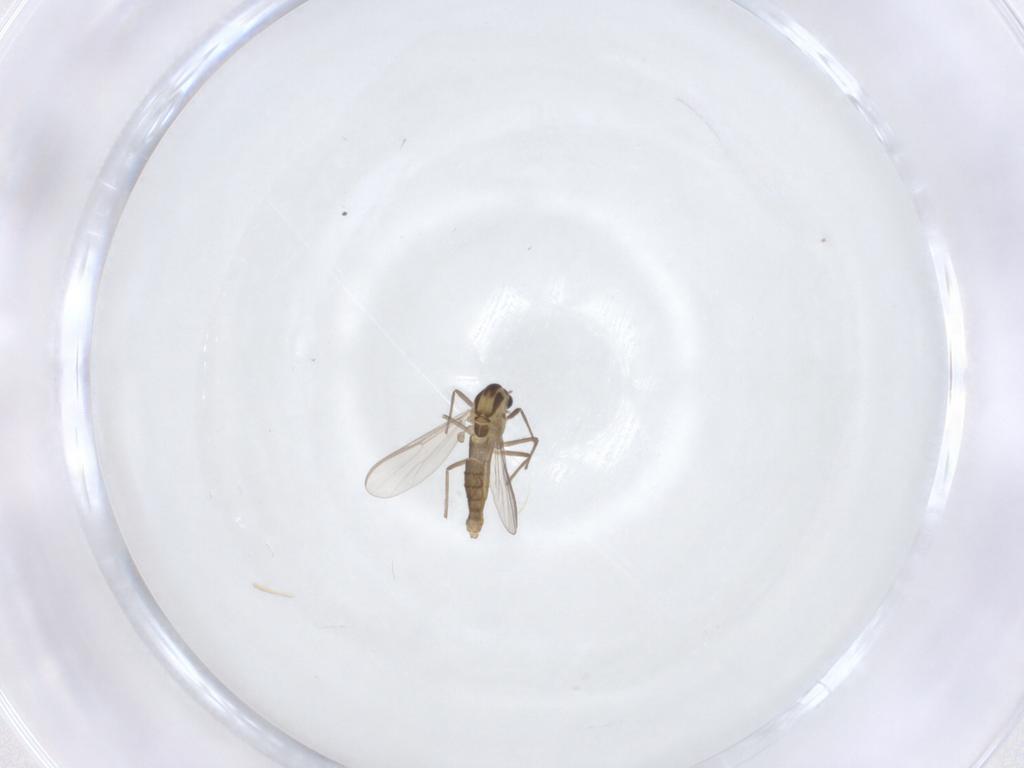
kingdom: Animalia
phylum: Arthropoda
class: Insecta
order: Diptera
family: Chironomidae
